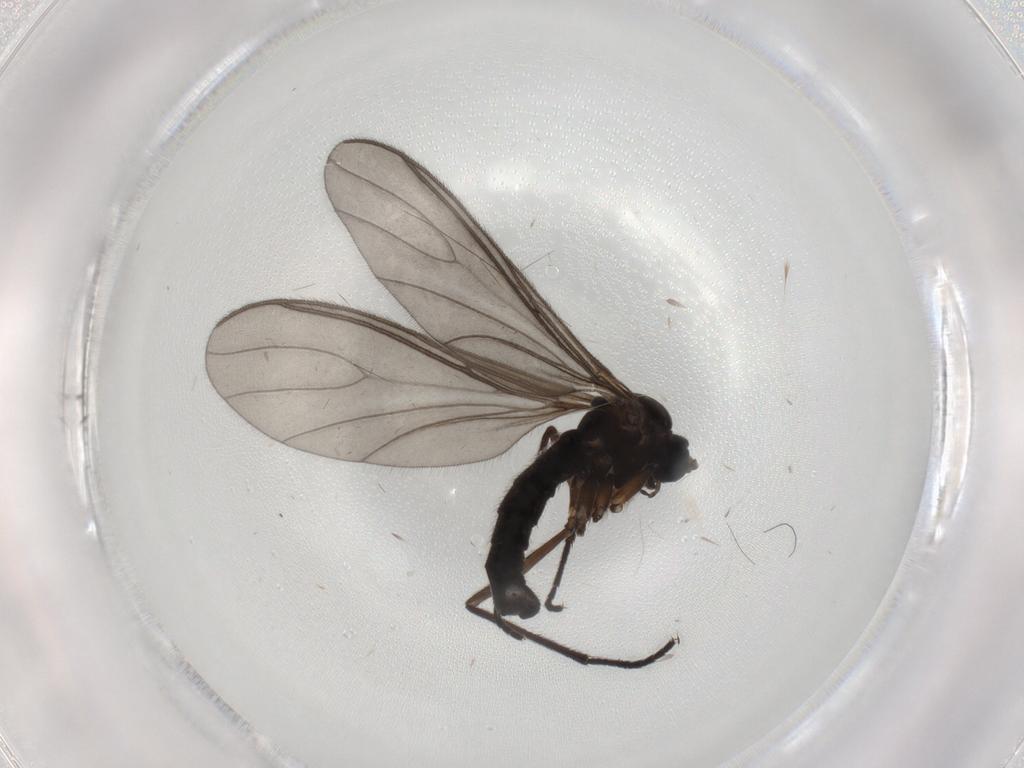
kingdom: Animalia
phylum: Arthropoda
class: Insecta
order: Diptera
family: Sciaridae
